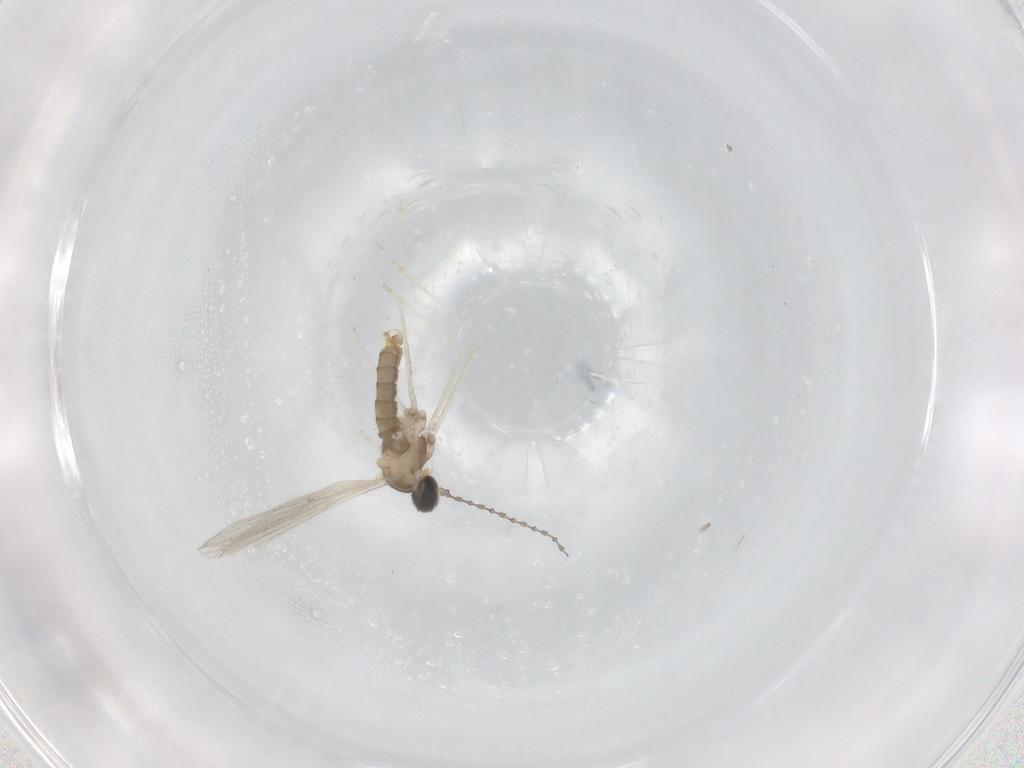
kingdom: Animalia
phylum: Arthropoda
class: Insecta
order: Diptera
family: Cecidomyiidae
